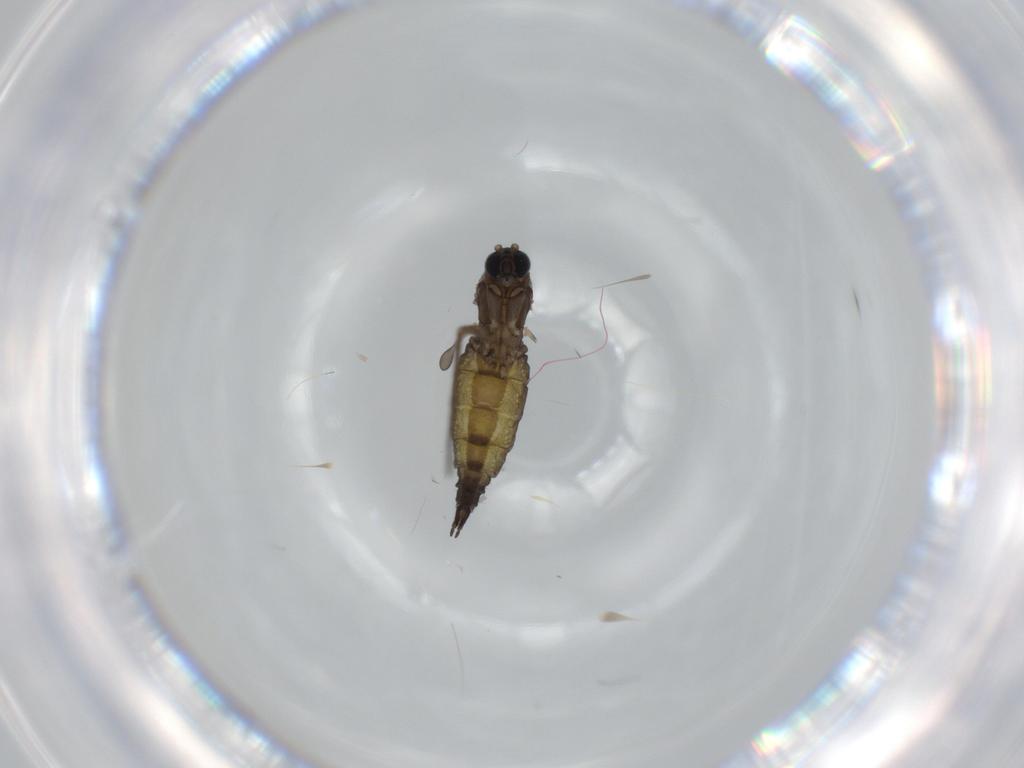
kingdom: Animalia
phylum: Arthropoda
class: Insecta
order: Diptera
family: Sciaridae
